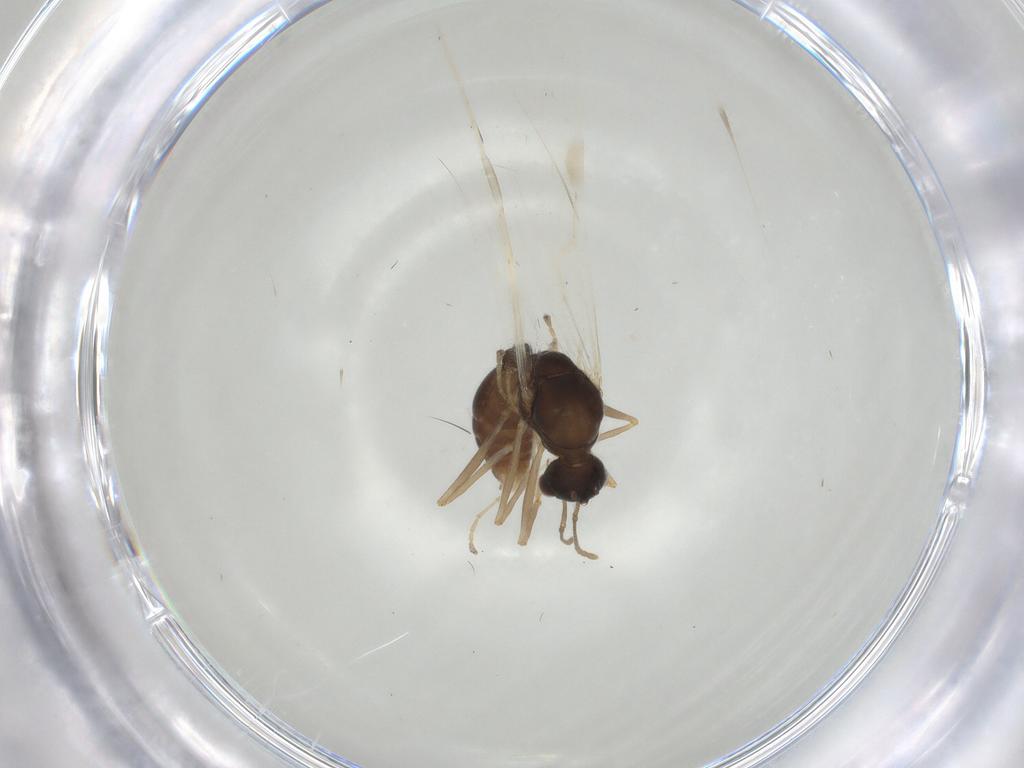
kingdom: Animalia
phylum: Arthropoda
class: Insecta
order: Hymenoptera
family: Formicidae
